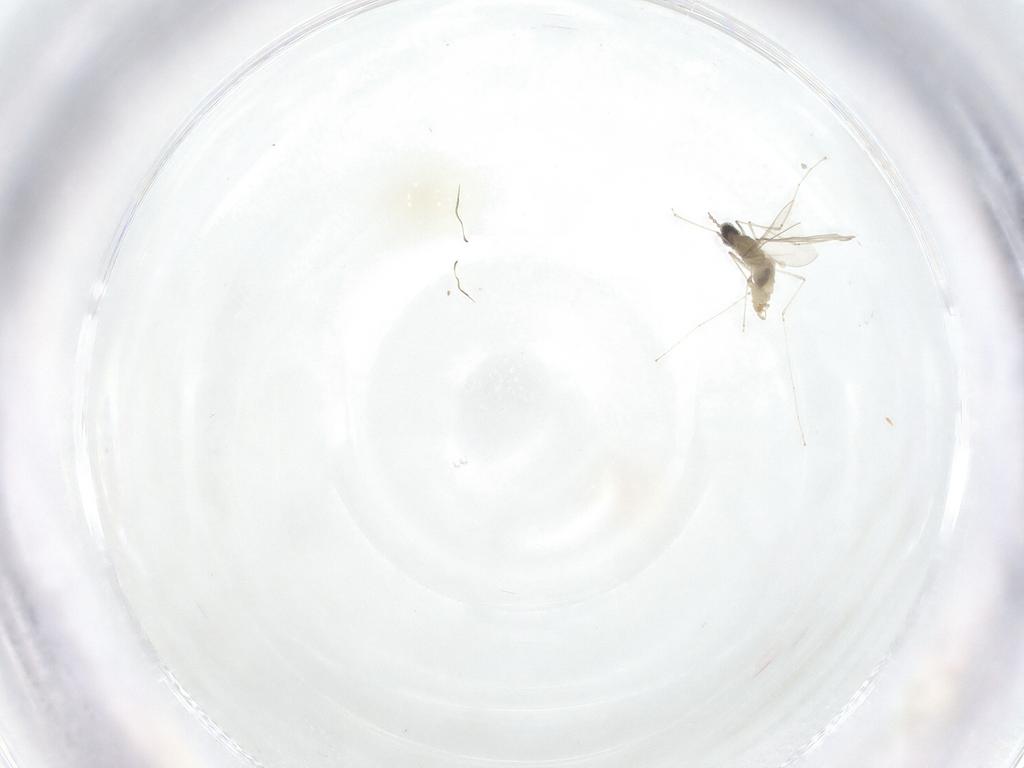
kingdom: Animalia
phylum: Arthropoda
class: Insecta
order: Diptera
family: Cecidomyiidae
